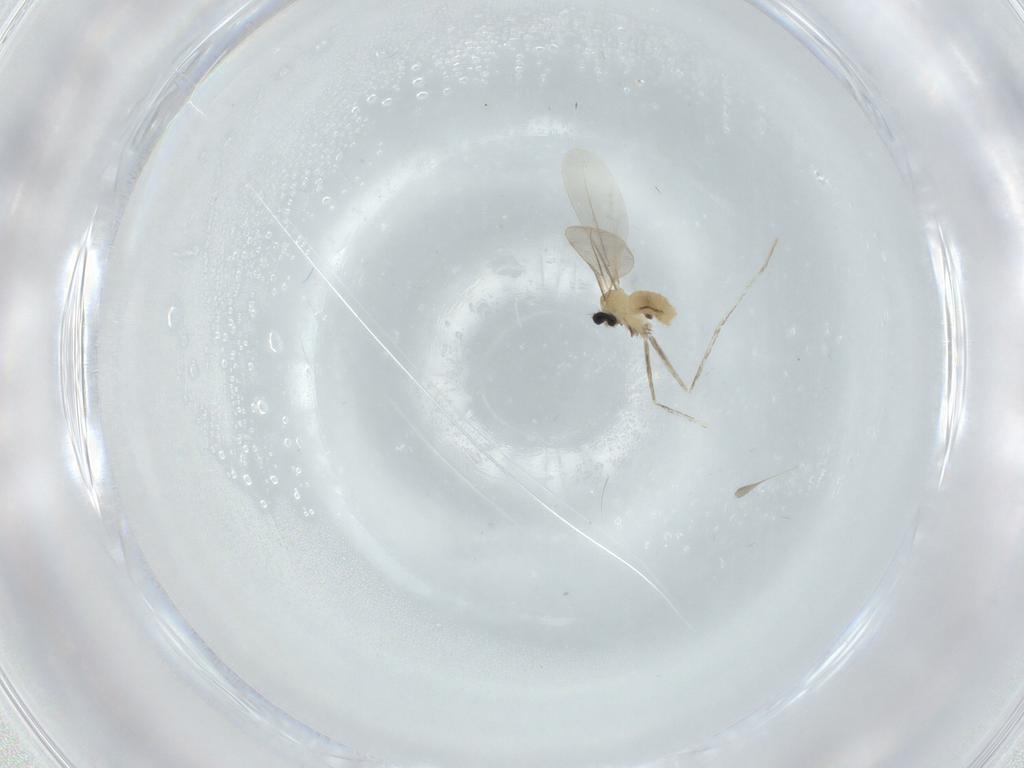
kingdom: Animalia
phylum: Arthropoda
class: Insecta
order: Diptera
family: Cecidomyiidae
